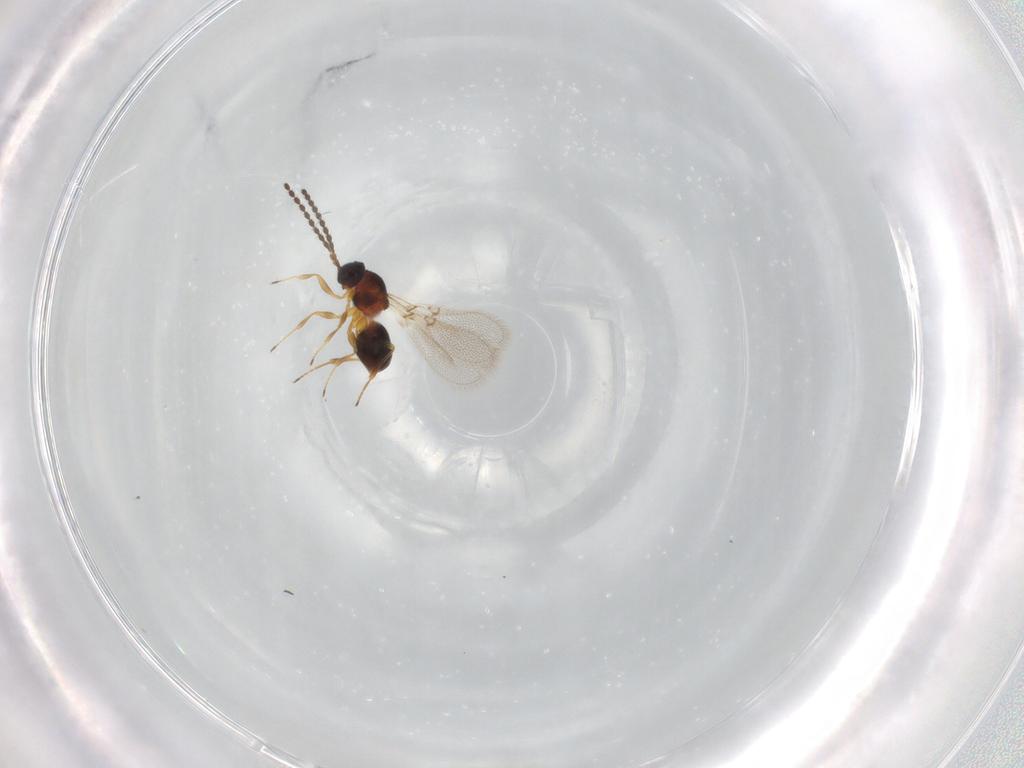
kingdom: Animalia
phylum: Arthropoda
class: Insecta
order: Hymenoptera
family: Figitidae
